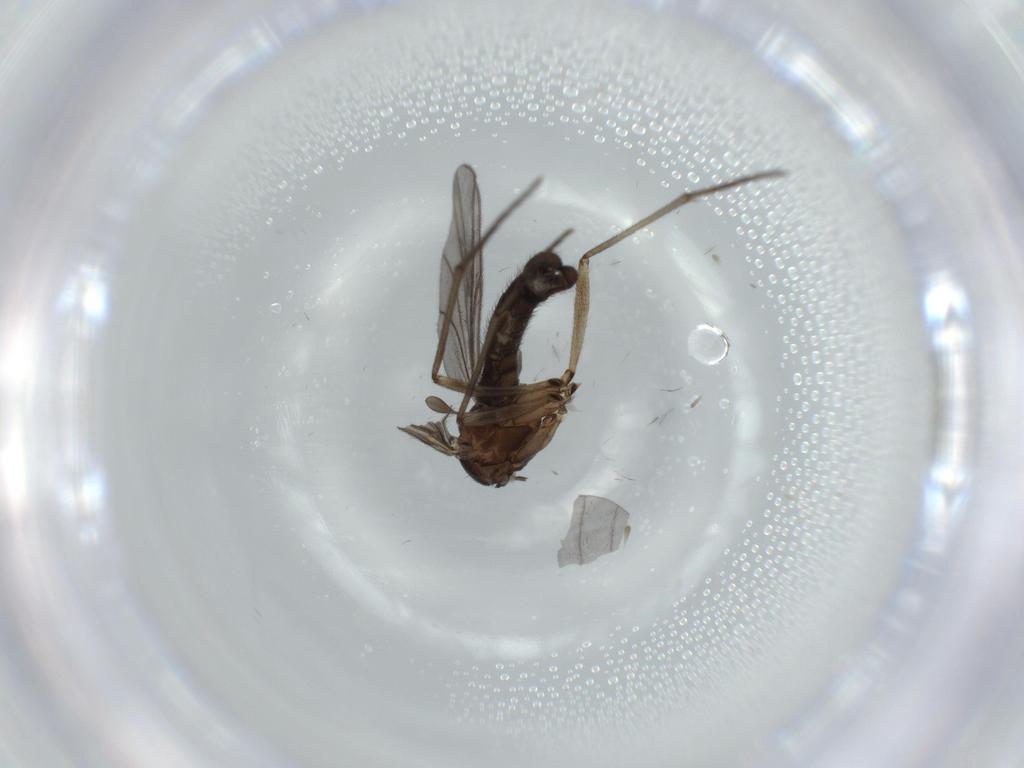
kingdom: Animalia
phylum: Arthropoda
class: Insecta
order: Diptera
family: Sciaridae
